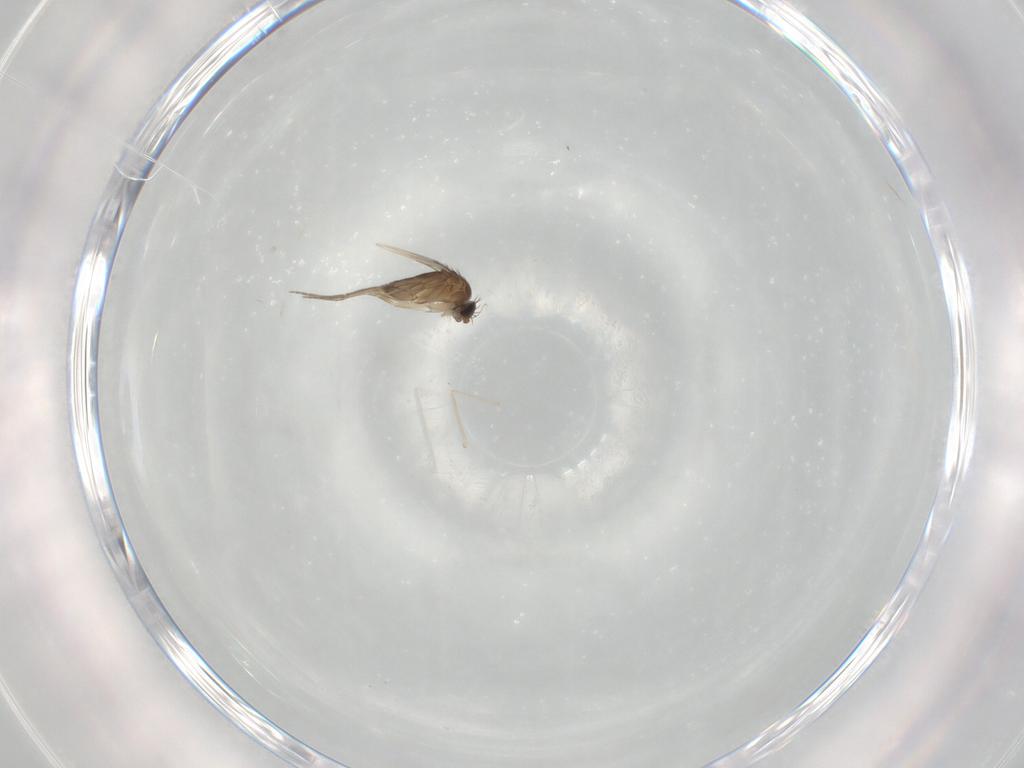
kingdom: Animalia
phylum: Arthropoda
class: Insecta
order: Diptera
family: Phoridae
